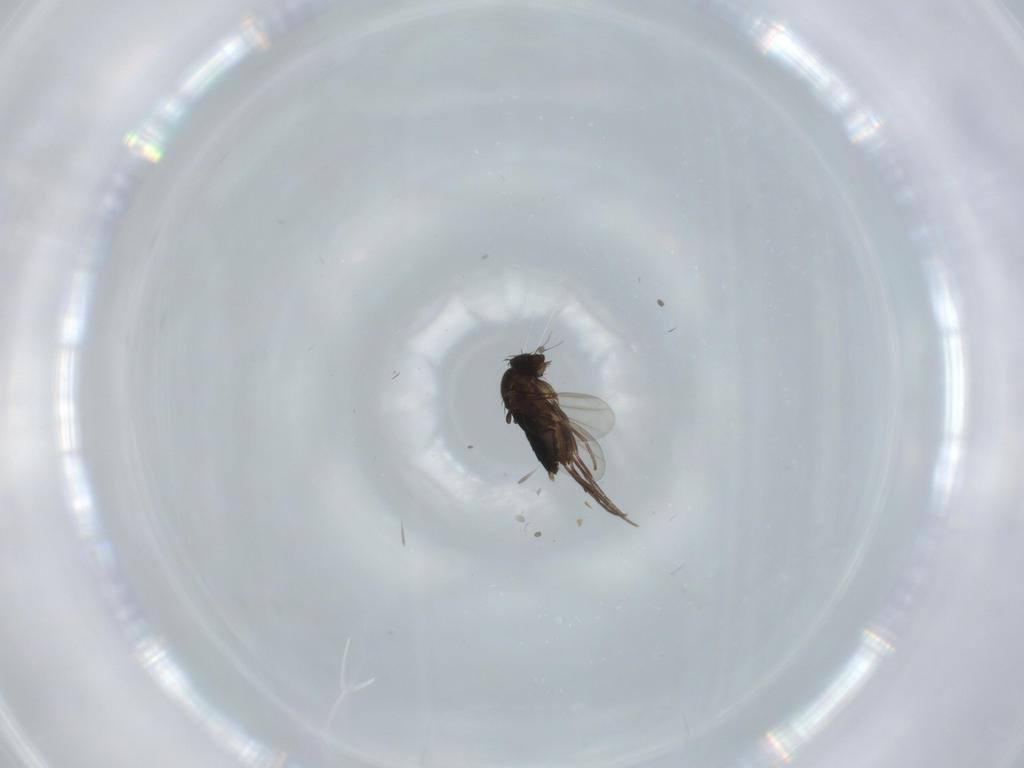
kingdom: Animalia
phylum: Arthropoda
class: Insecta
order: Diptera
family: Phoridae
